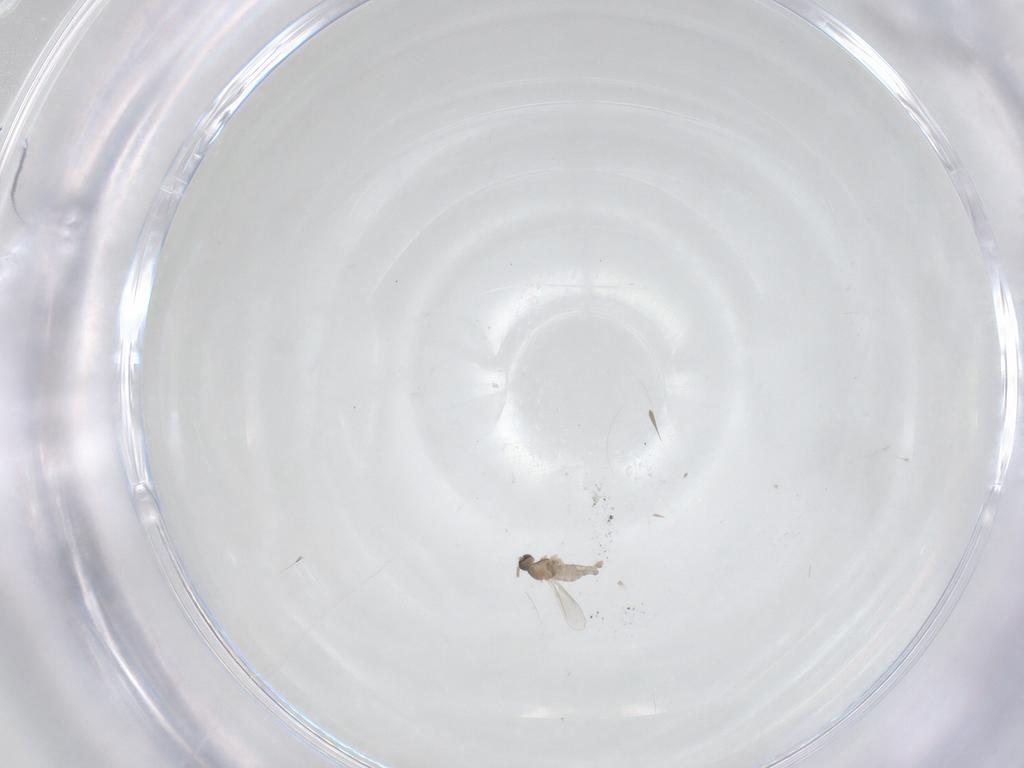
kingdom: Animalia
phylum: Arthropoda
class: Insecta
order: Diptera
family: Cecidomyiidae
